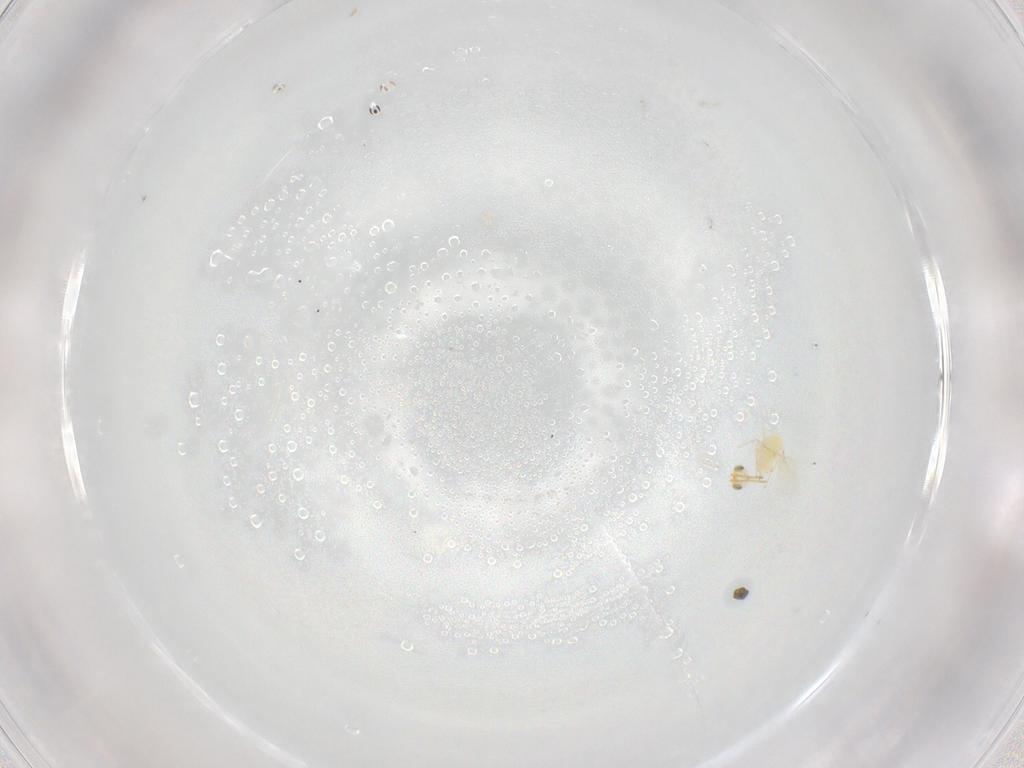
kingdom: Animalia
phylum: Arthropoda
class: Insecta
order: Hymenoptera
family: Aphelinidae
